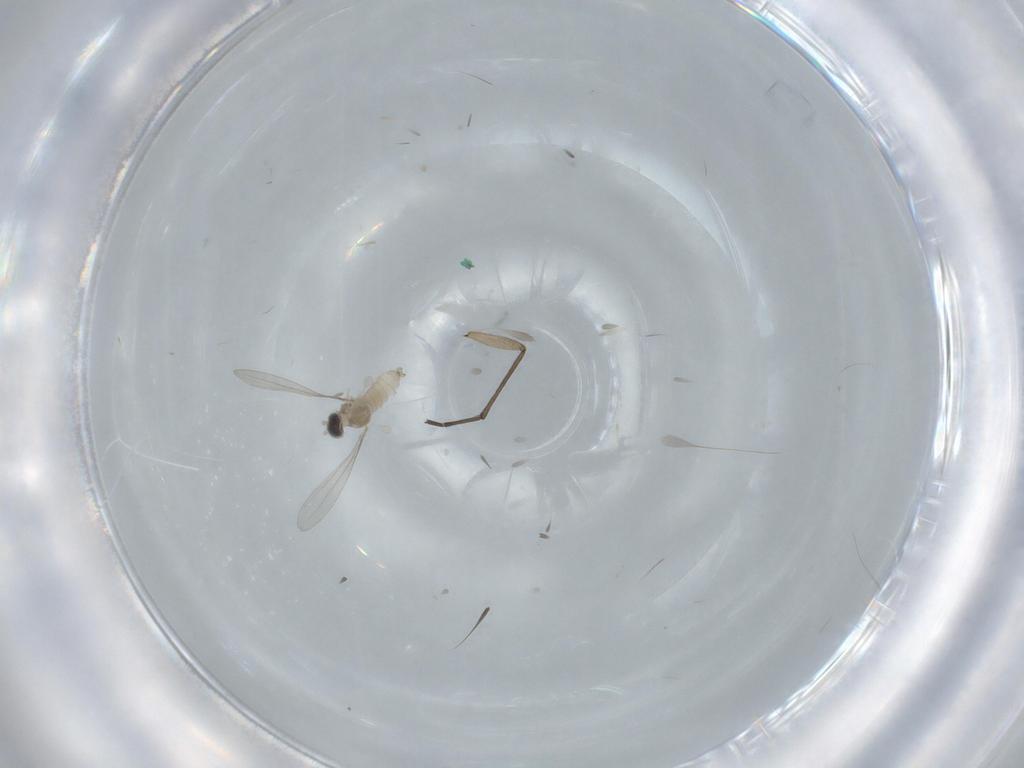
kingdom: Animalia
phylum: Arthropoda
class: Insecta
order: Diptera
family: Cecidomyiidae
